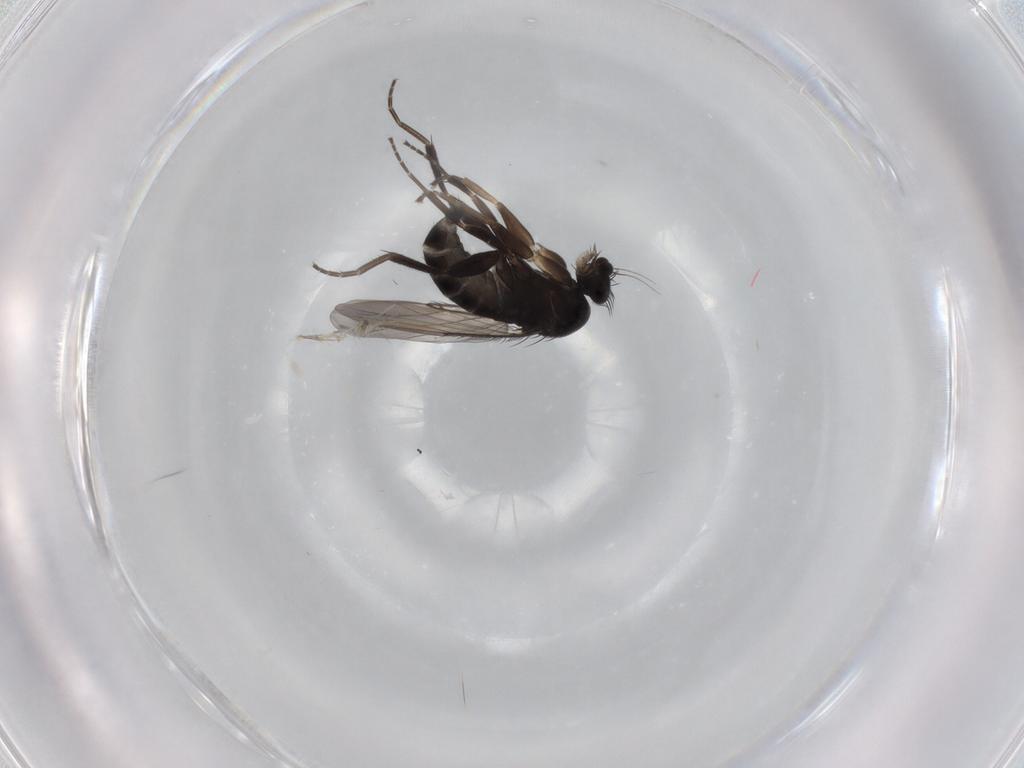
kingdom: Animalia
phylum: Arthropoda
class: Insecta
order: Diptera
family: Phoridae
